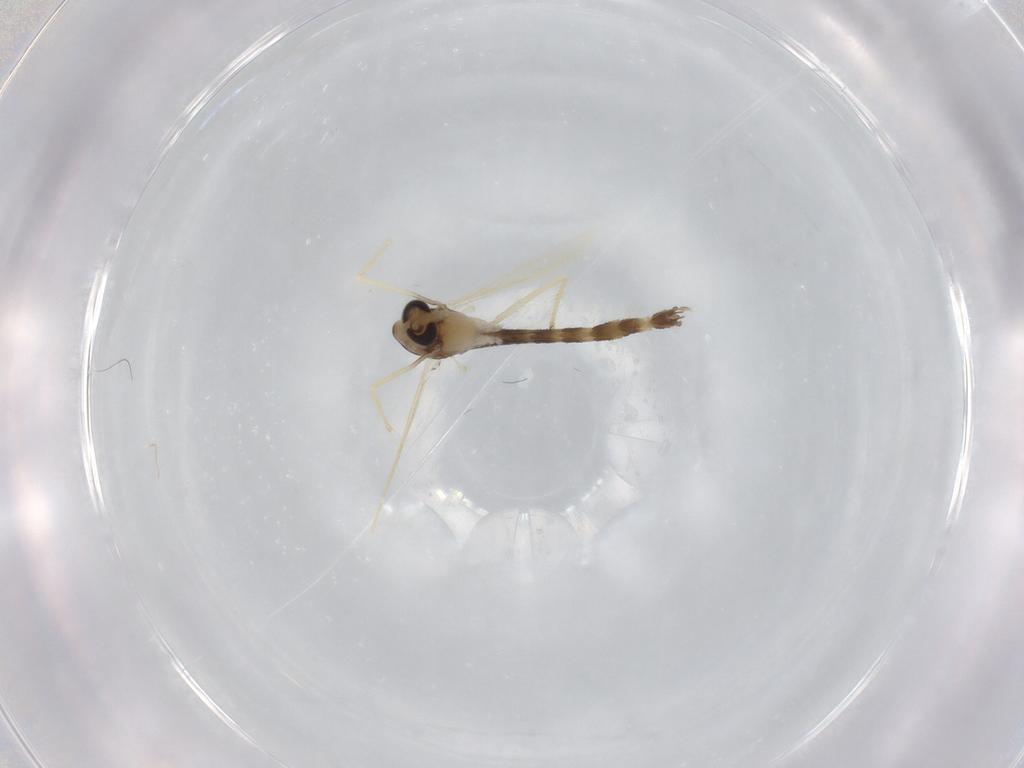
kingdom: Animalia
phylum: Arthropoda
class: Insecta
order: Diptera
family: Chironomidae
